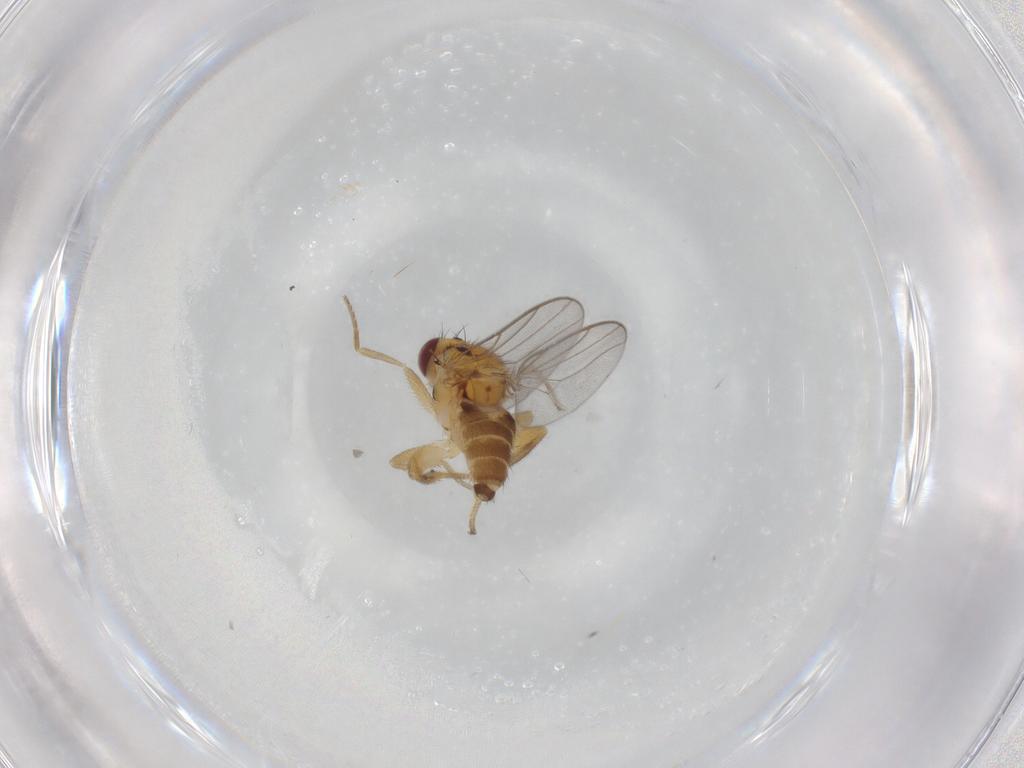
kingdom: Animalia
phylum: Arthropoda
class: Insecta
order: Diptera
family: Chloropidae
